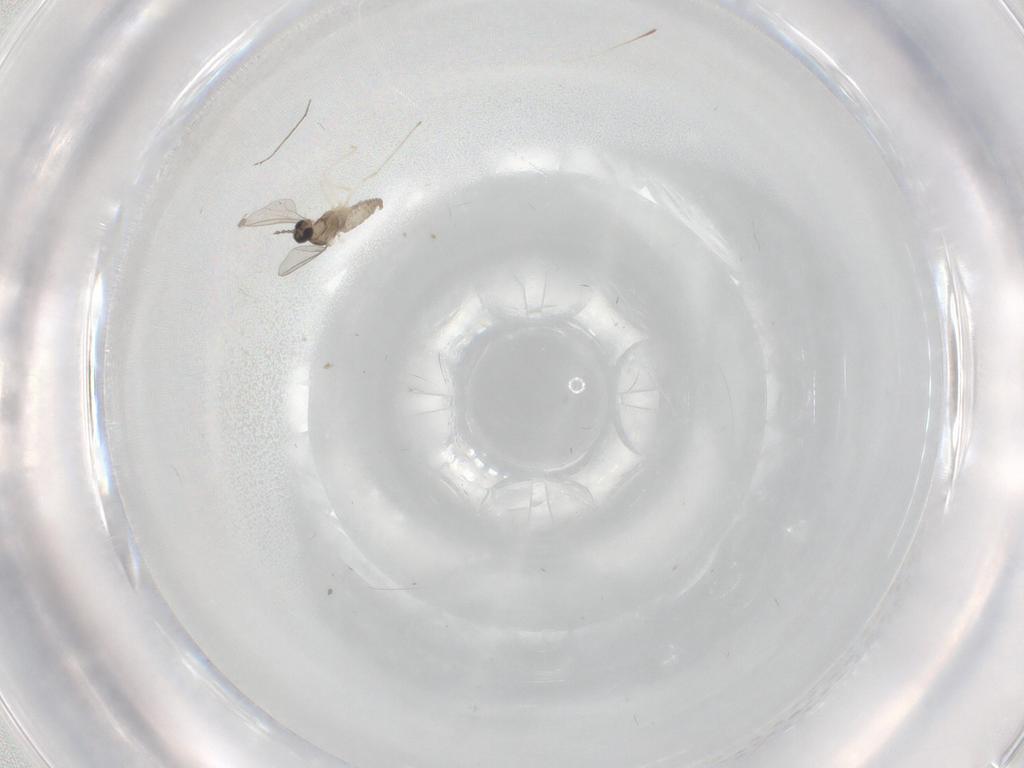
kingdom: Animalia
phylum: Arthropoda
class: Insecta
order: Diptera
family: Cecidomyiidae
